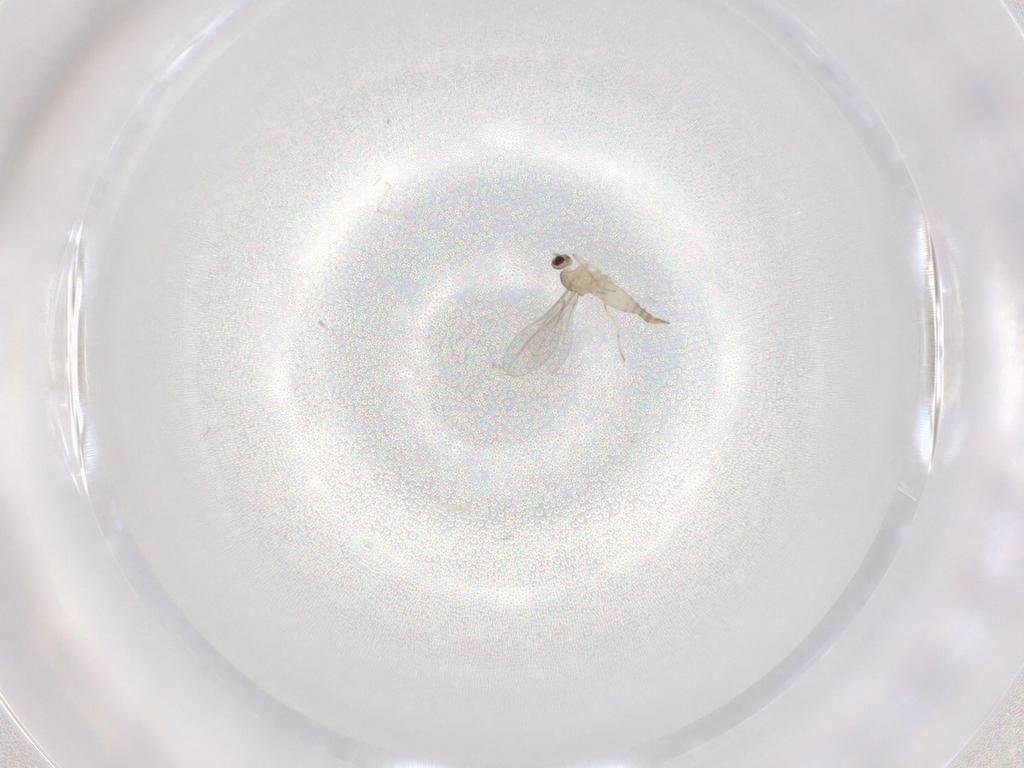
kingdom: Animalia
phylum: Arthropoda
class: Insecta
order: Diptera
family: Cecidomyiidae
